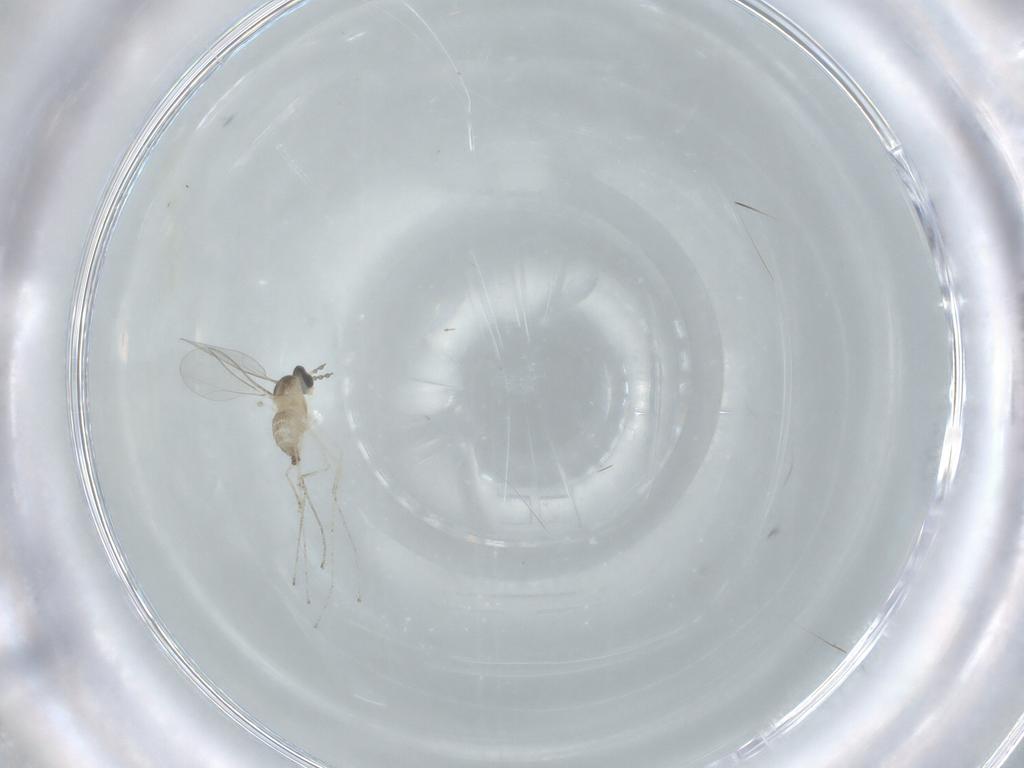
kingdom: Animalia
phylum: Arthropoda
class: Insecta
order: Diptera
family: Cecidomyiidae
